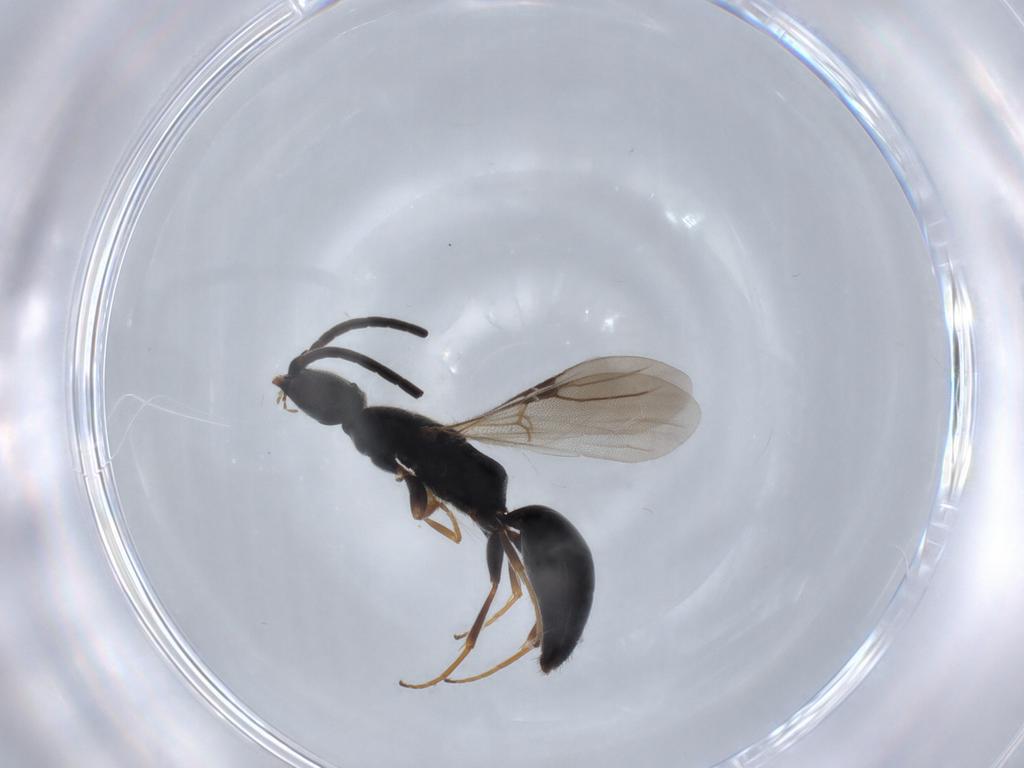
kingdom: Animalia
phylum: Arthropoda
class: Insecta
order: Hymenoptera
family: Bethylidae
